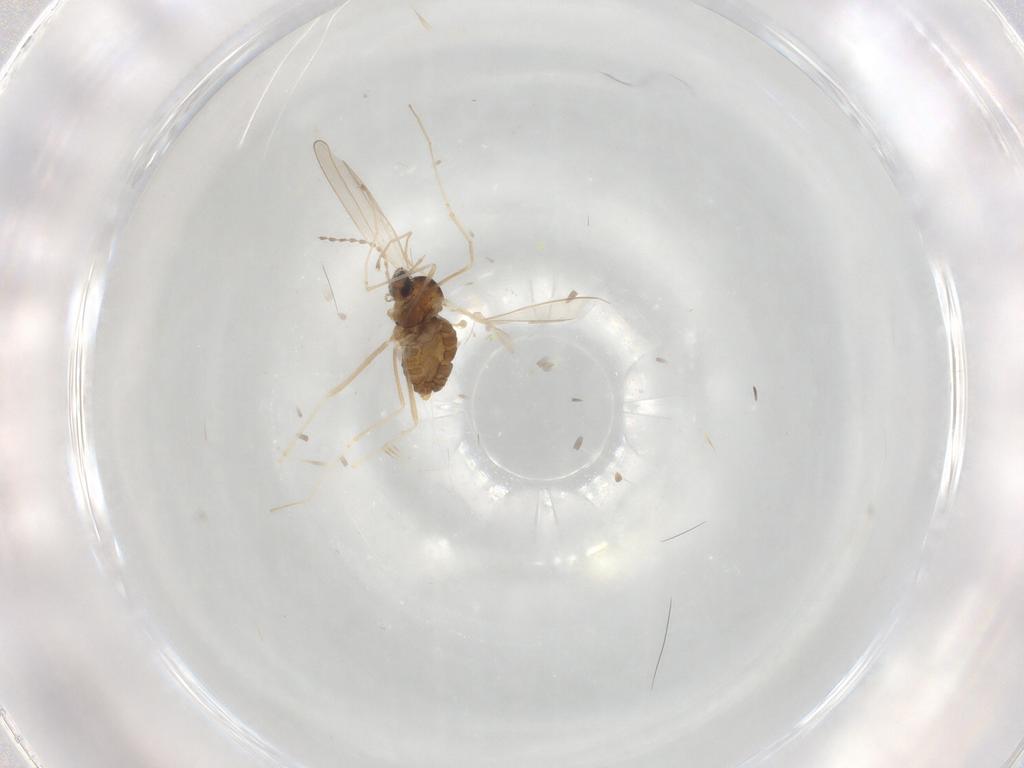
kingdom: Animalia
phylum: Arthropoda
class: Insecta
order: Diptera
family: Cecidomyiidae
